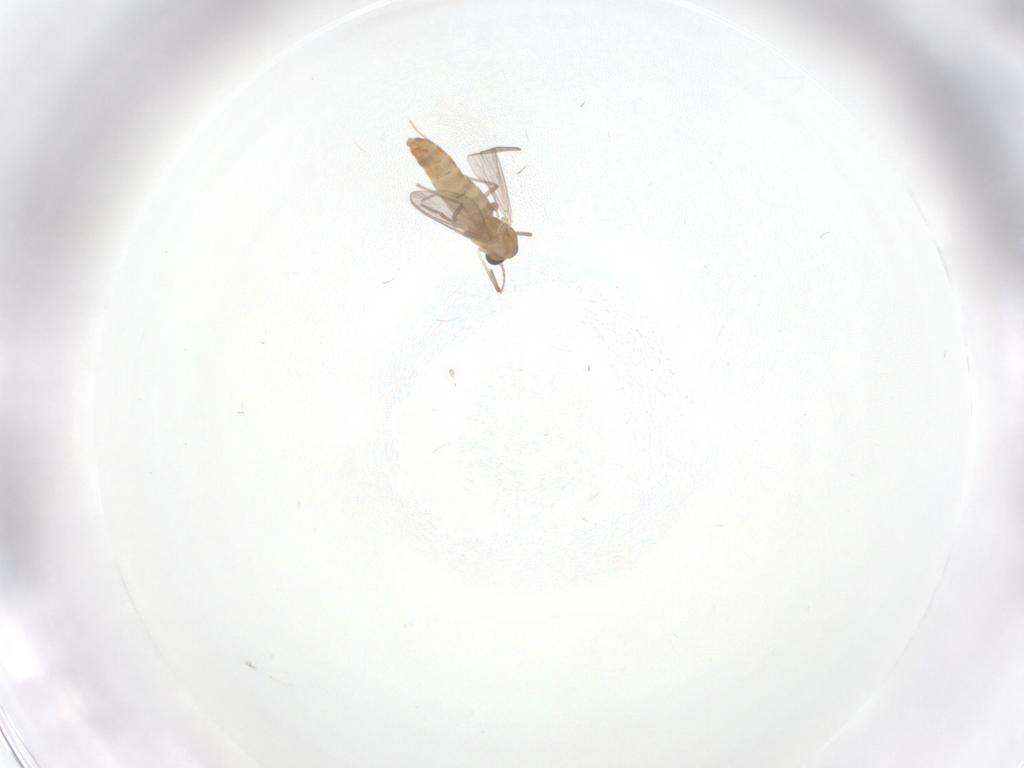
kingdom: Animalia
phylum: Arthropoda
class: Insecta
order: Diptera
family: Chironomidae
